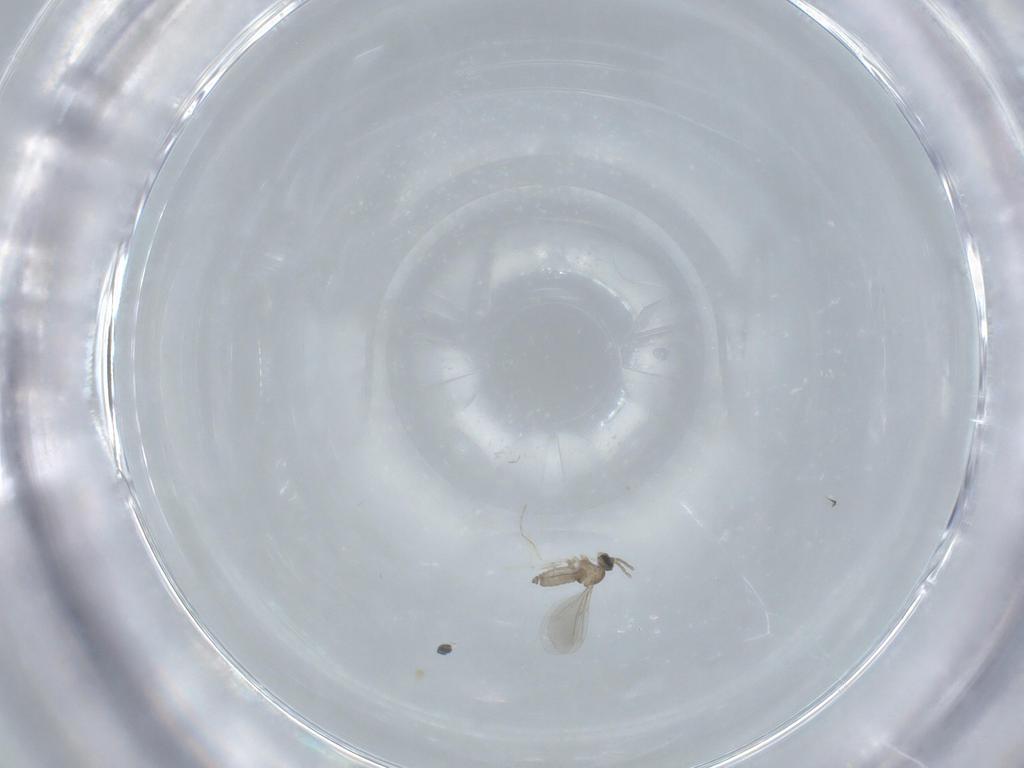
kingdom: Animalia
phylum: Arthropoda
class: Insecta
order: Diptera
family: Cecidomyiidae
